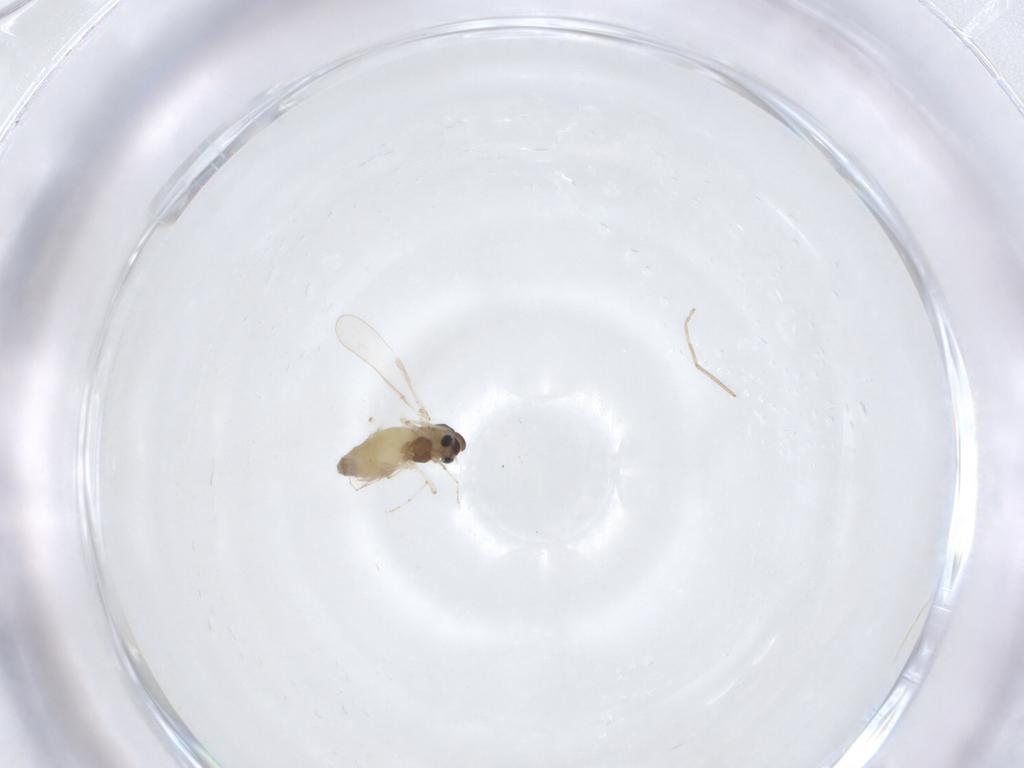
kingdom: Animalia
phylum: Arthropoda
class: Insecta
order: Diptera
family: Chironomidae
